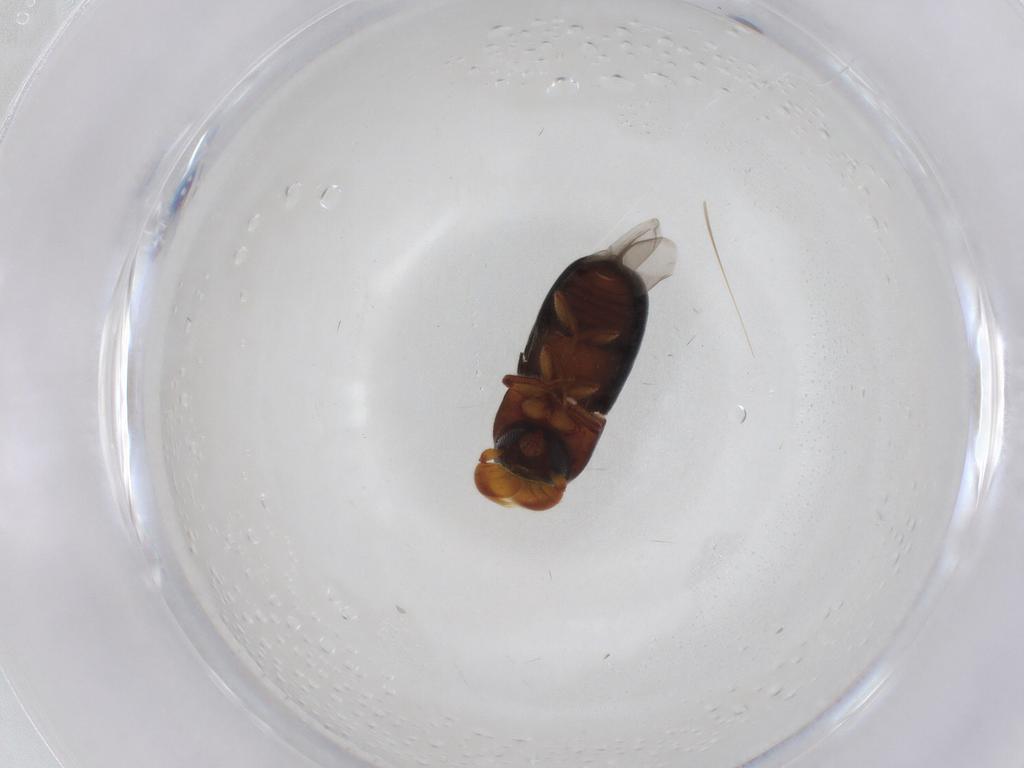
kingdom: Animalia
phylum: Arthropoda
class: Insecta
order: Coleoptera
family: Curculionidae
